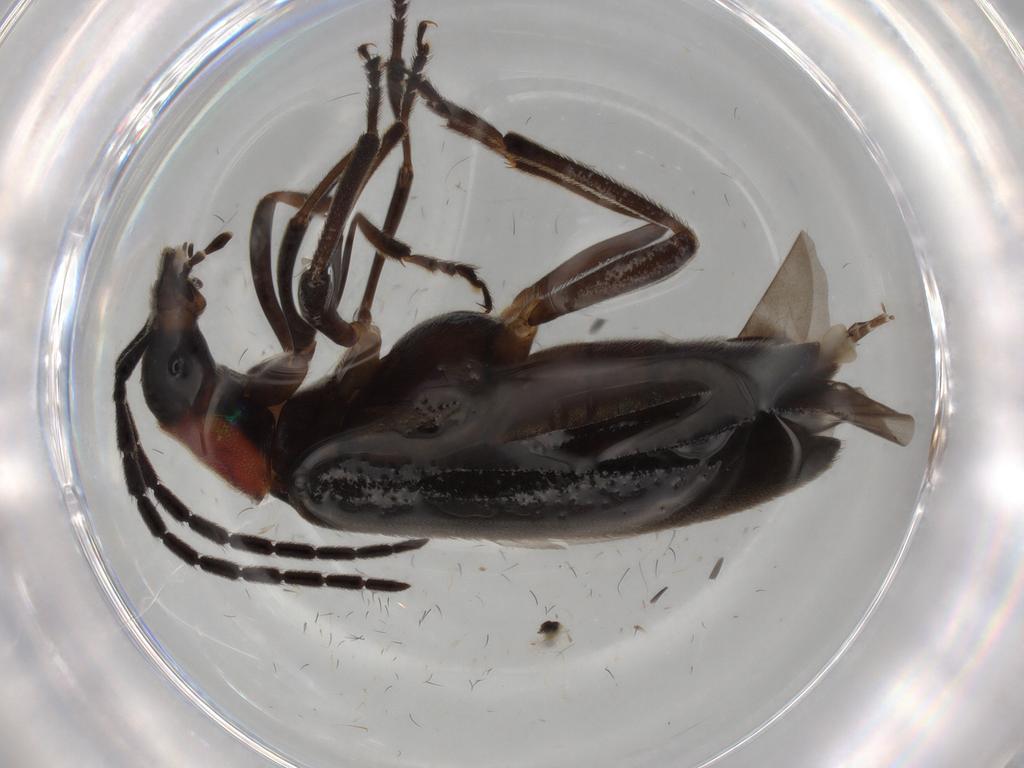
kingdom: Animalia
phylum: Arthropoda
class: Insecta
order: Coleoptera
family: Oedemeridae
